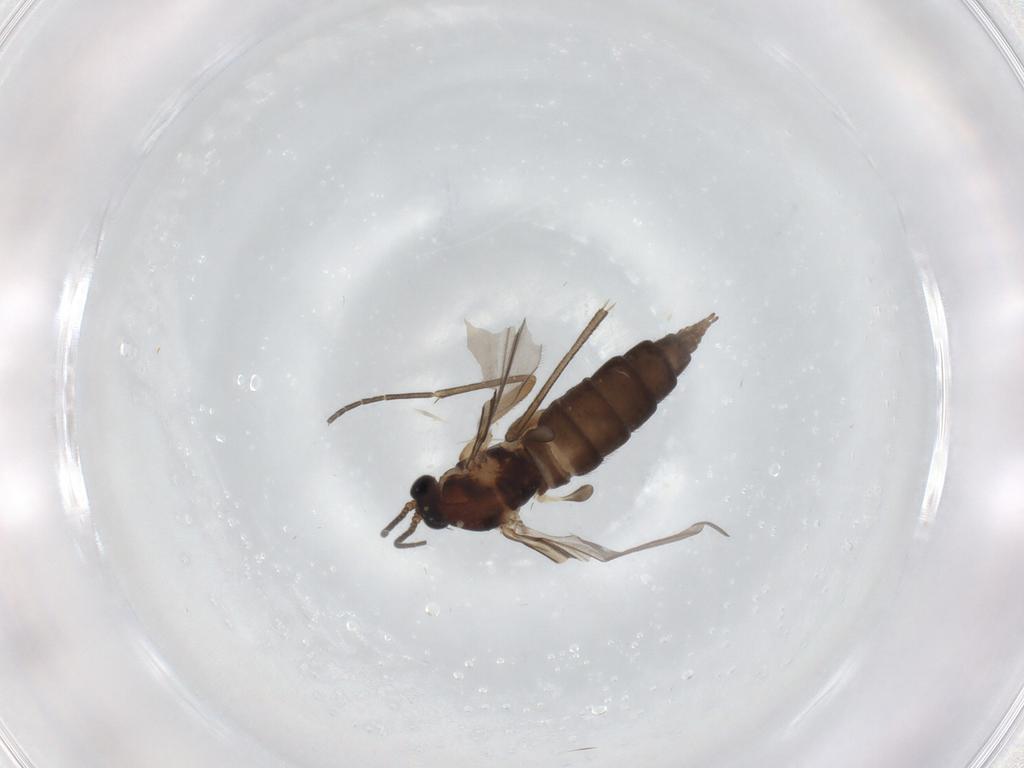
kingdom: Animalia
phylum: Arthropoda
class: Insecta
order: Diptera
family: Sciaridae
